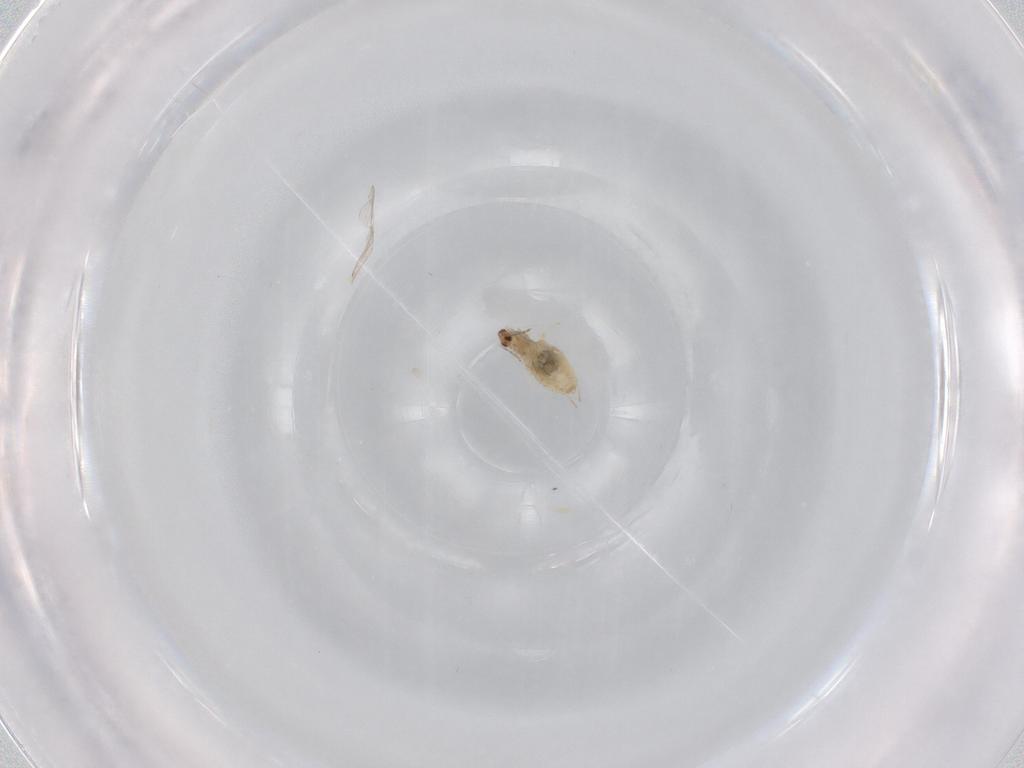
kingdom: Animalia
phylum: Arthropoda
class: Insecta
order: Diptera
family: Cecidomyiidae
